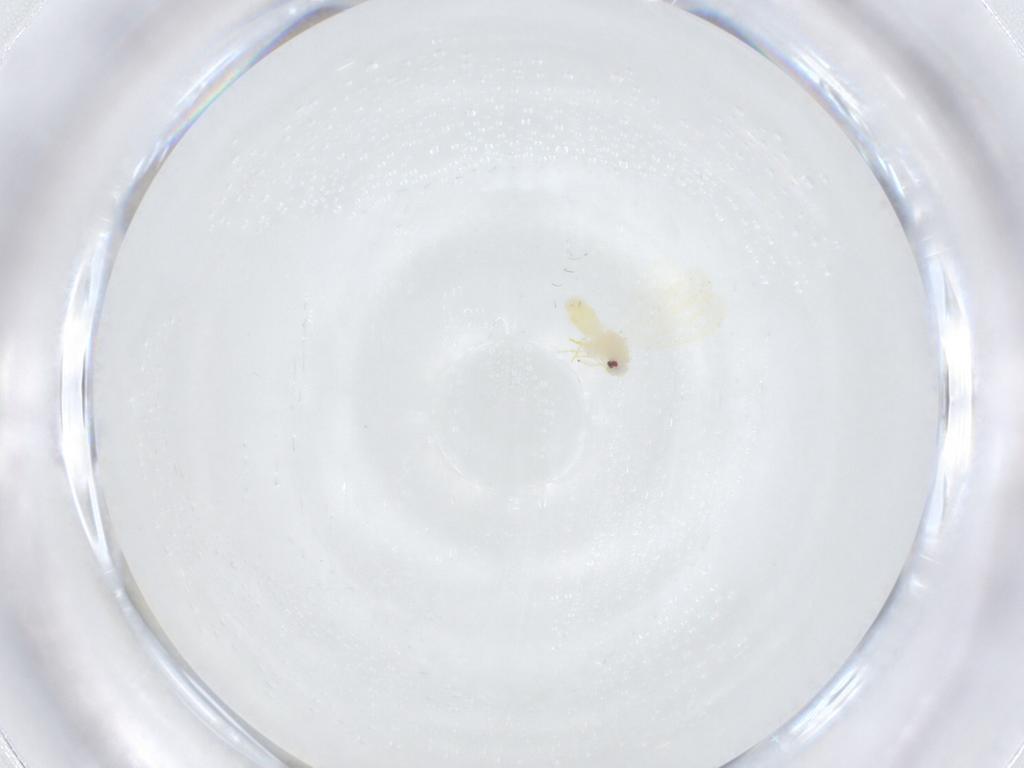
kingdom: Animalia
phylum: Arthropoda
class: Insecta
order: Hemiptera
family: Aleyrodidae
